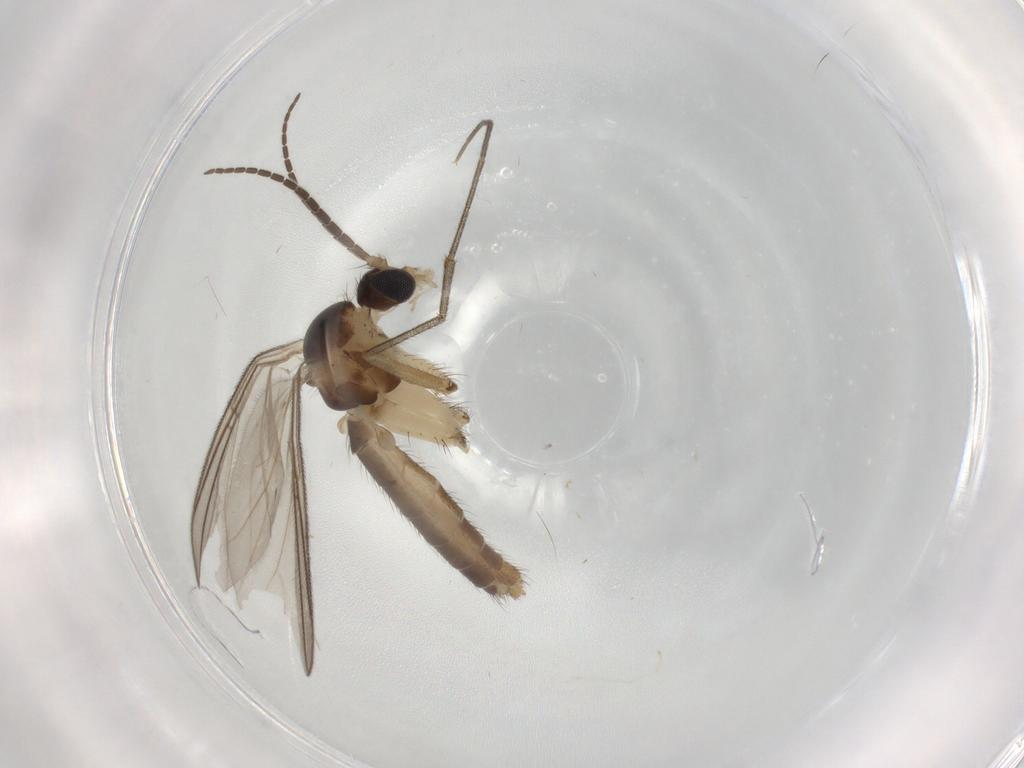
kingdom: Animalia
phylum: Arthropoda
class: Insecta
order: Diptera
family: Mycetophilidae
